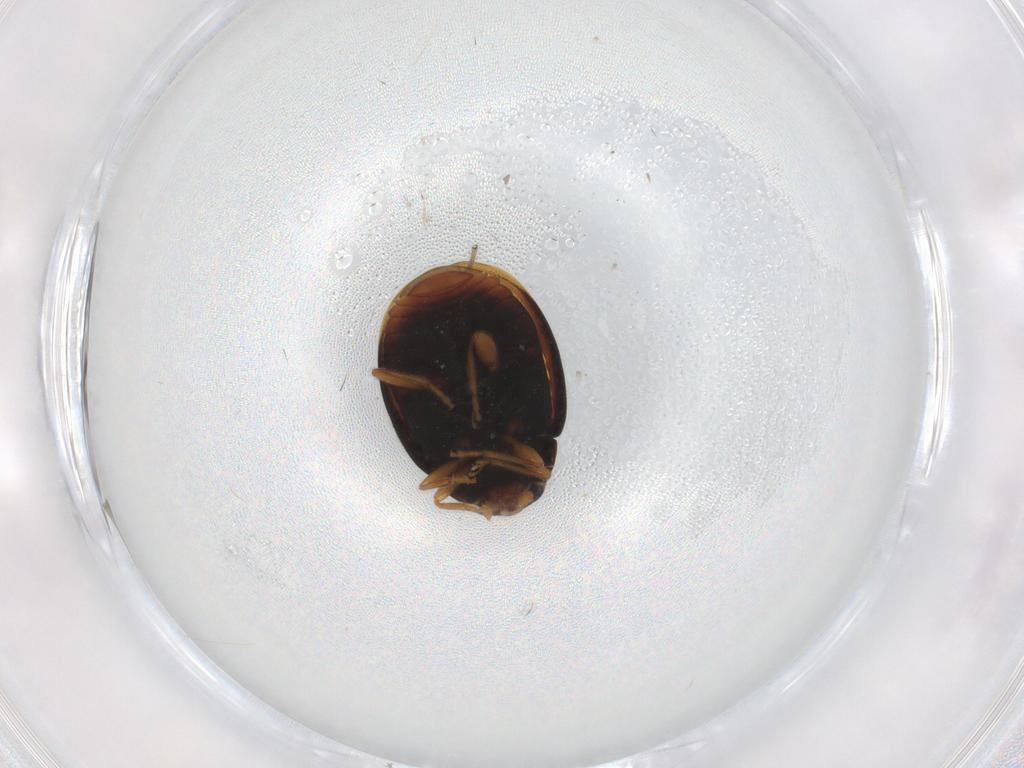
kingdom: Animalia
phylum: Arthropoda
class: Insecta
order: Coleoptera
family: Coccinellidae
